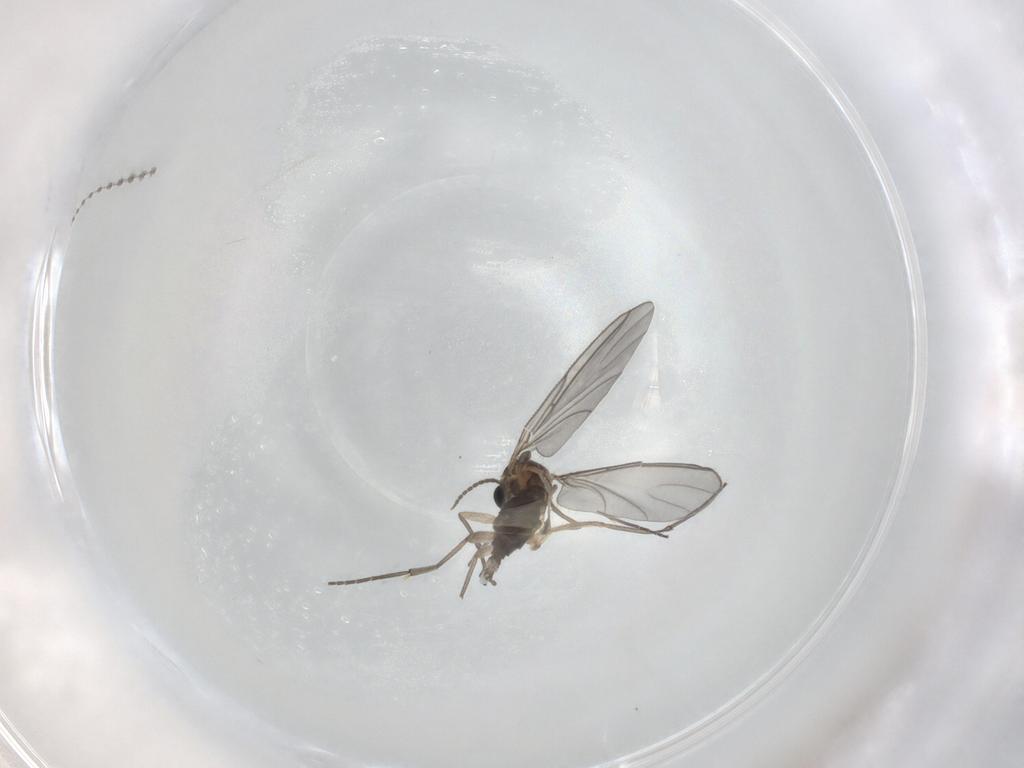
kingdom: Animalia
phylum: Arthropoda
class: Insecta
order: Diptera
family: Sciaridae
